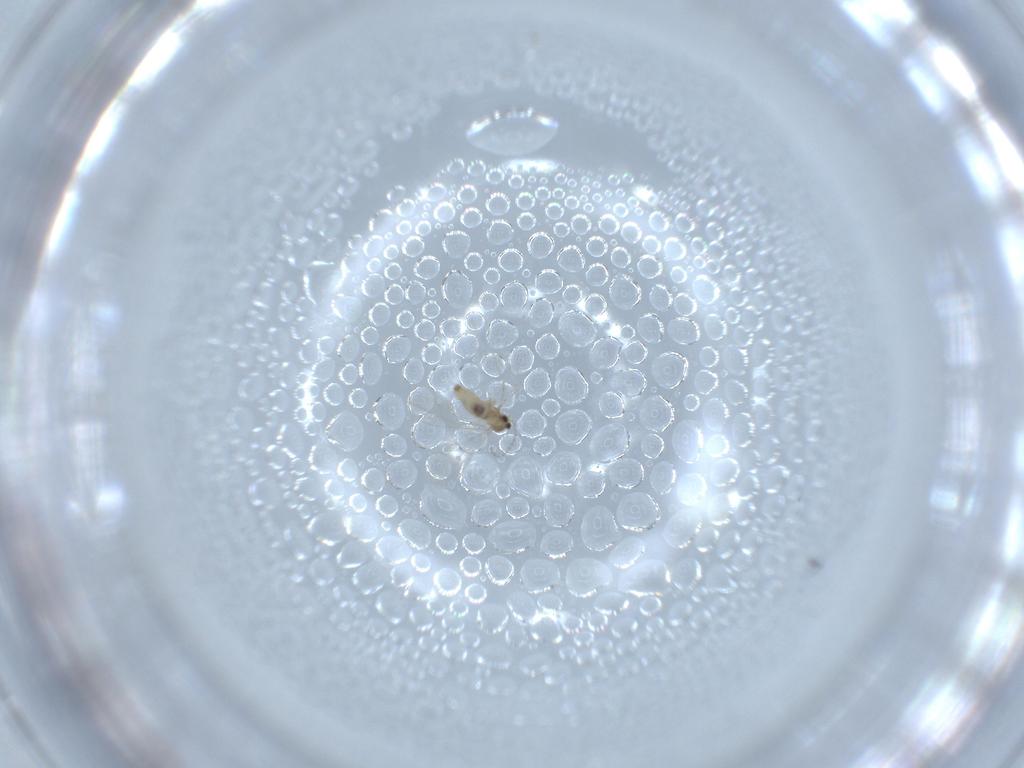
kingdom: Animalia
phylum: Arthropoda
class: Insecta
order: Diptera
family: Cecidomyiidae
